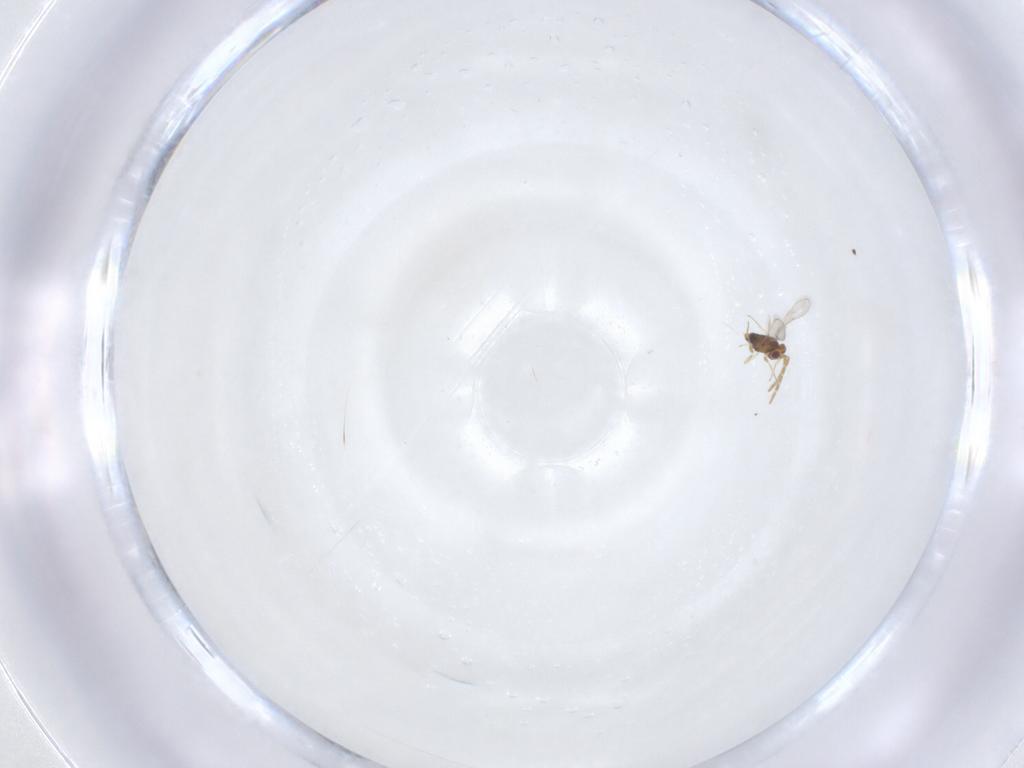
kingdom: Animalia
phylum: Arthropoda
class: Insecta
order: Hymenoptera
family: Aphelinidae
